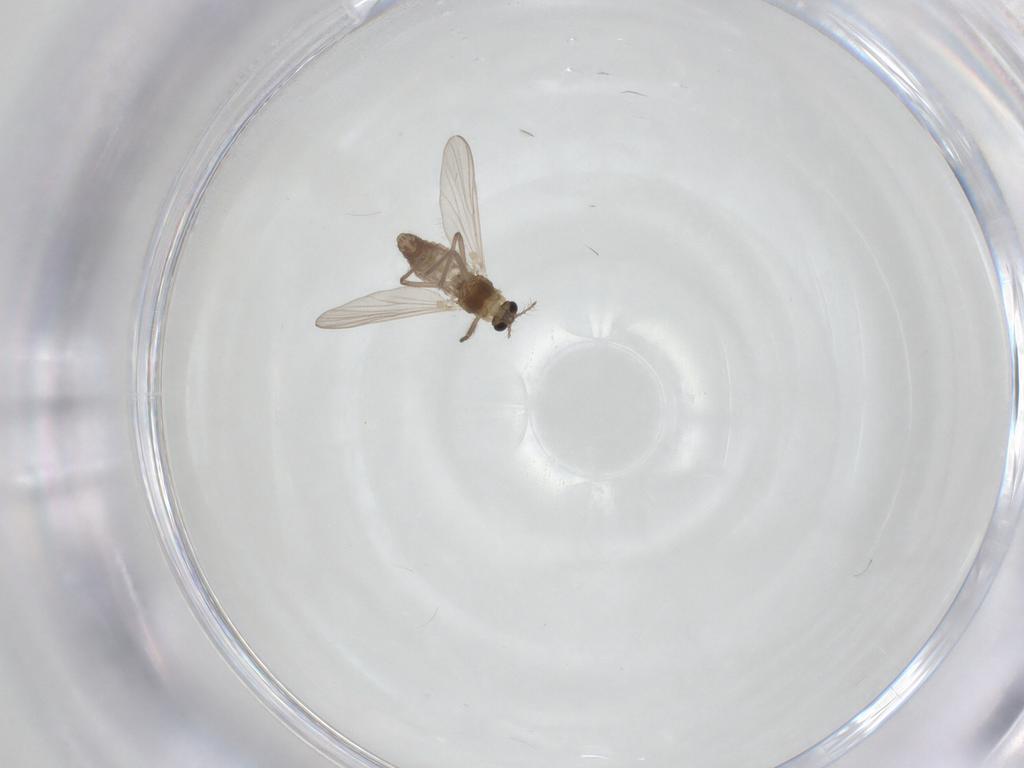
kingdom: Animalia
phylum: Arthropoda
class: Insecta
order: Diptera
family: Chironomidae
